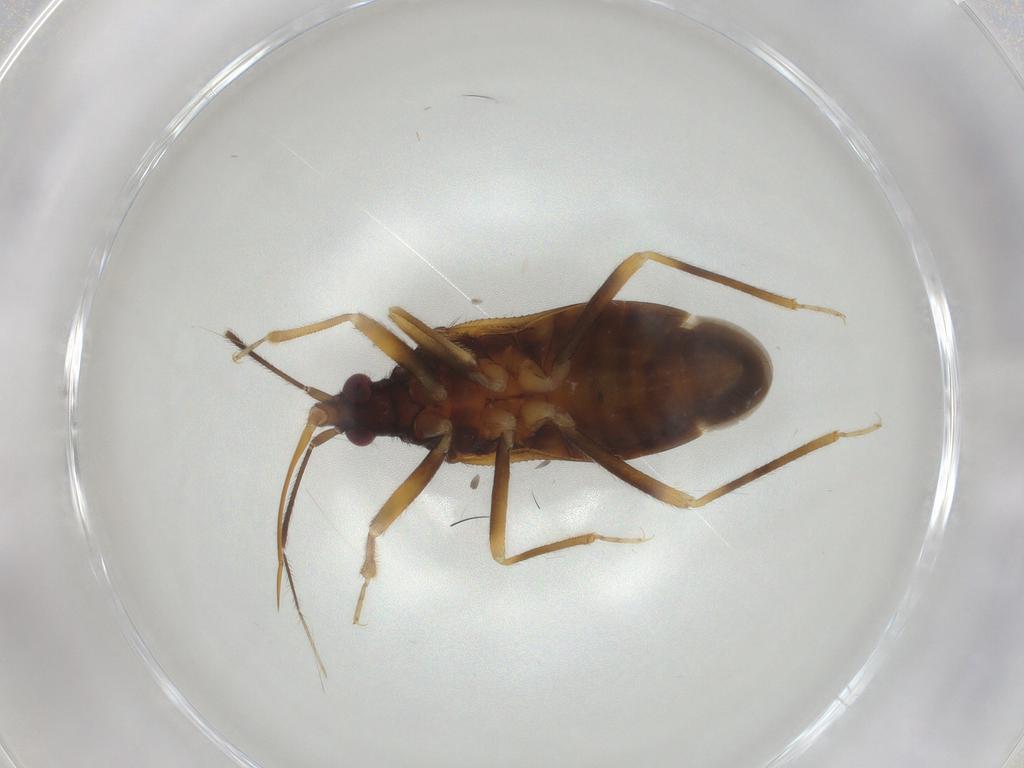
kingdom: Animalia
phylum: Arthropoda
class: Insecta
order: Hemiptera
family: Anthocoridae
